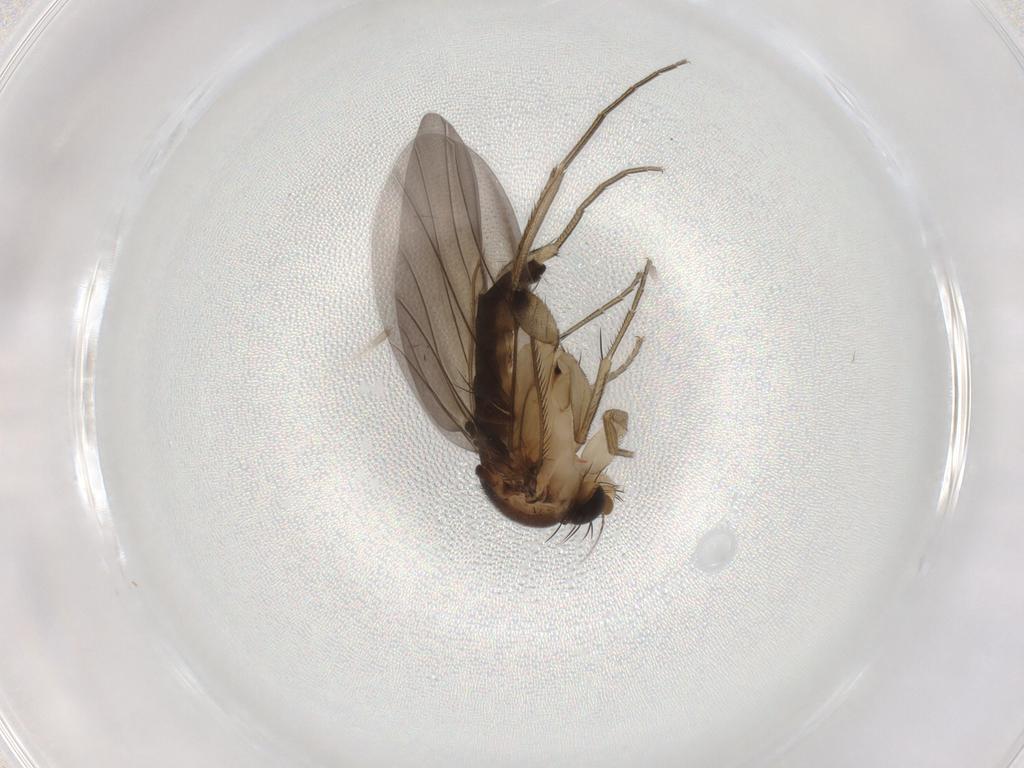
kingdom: Animalia
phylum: Arthropoda
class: Insecta
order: Diptera
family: Phoridae
